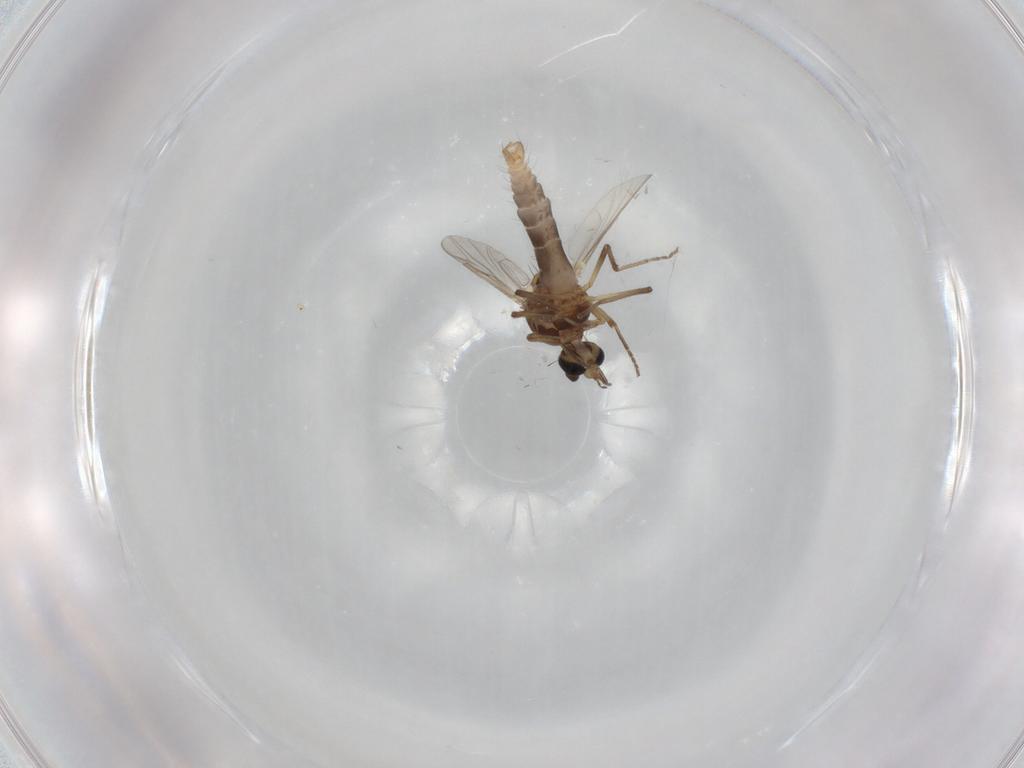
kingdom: Animalia
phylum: Arthropoda
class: Insecta
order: Diptera
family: Ceratopogonidae
